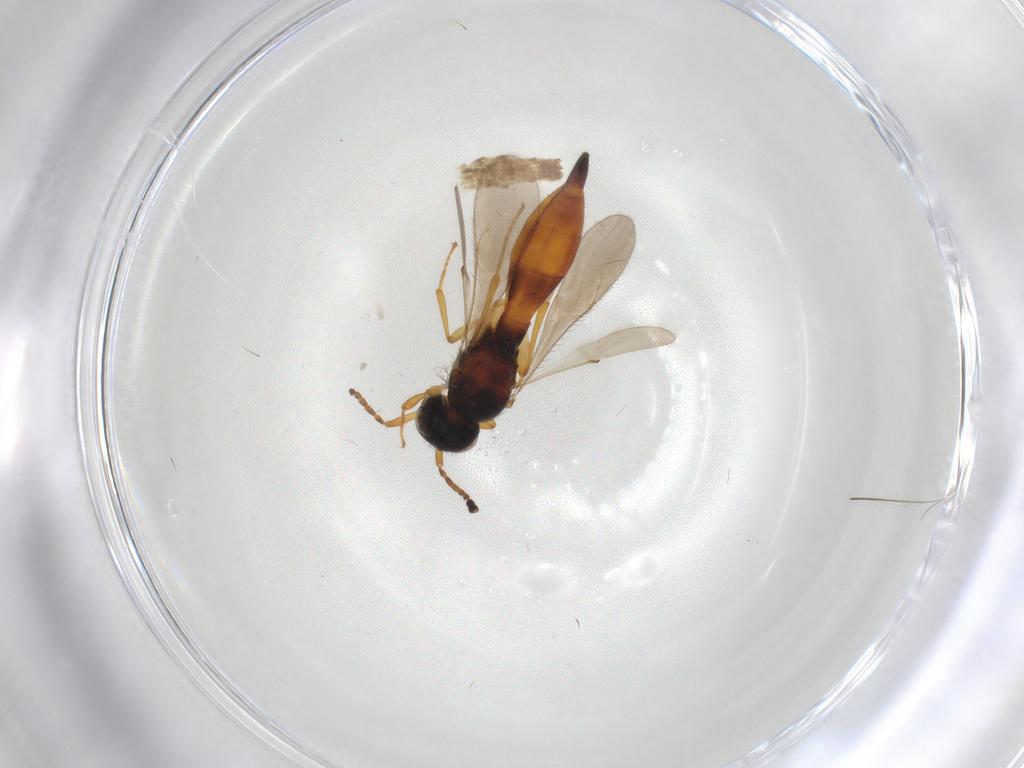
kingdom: Animalia
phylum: Arthropoda
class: Insecta
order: Hymenoptera
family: Scelionidae
